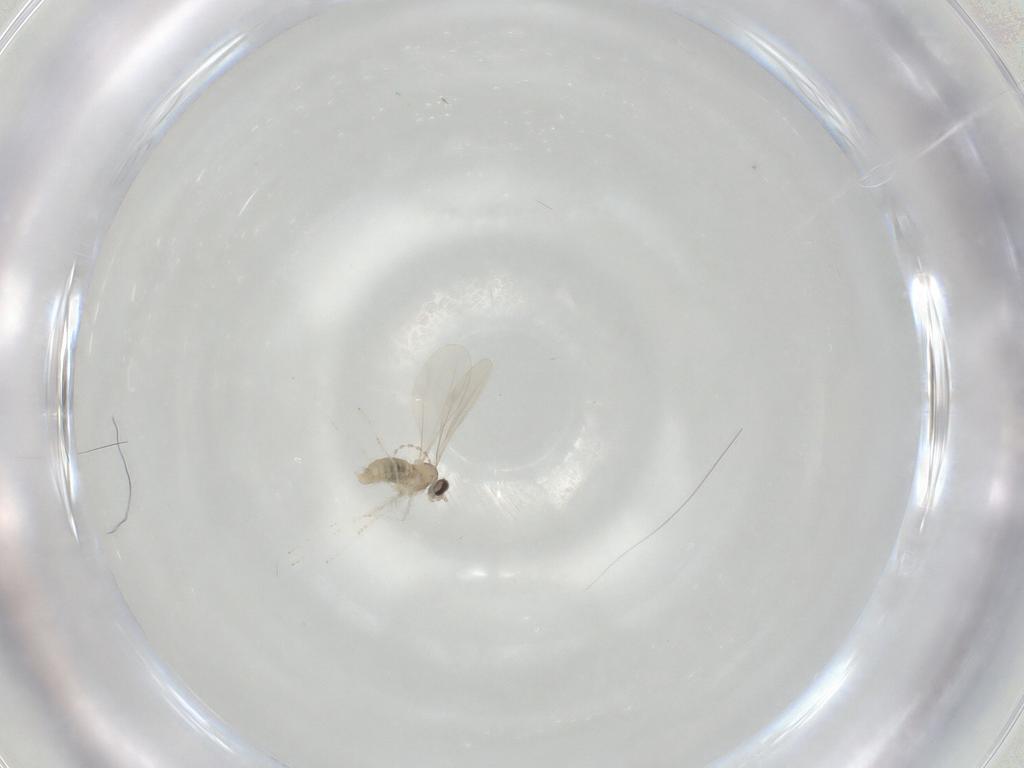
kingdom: Animalia
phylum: Arthropoda
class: Insecta
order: Diptera
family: Cecidomyiidae
